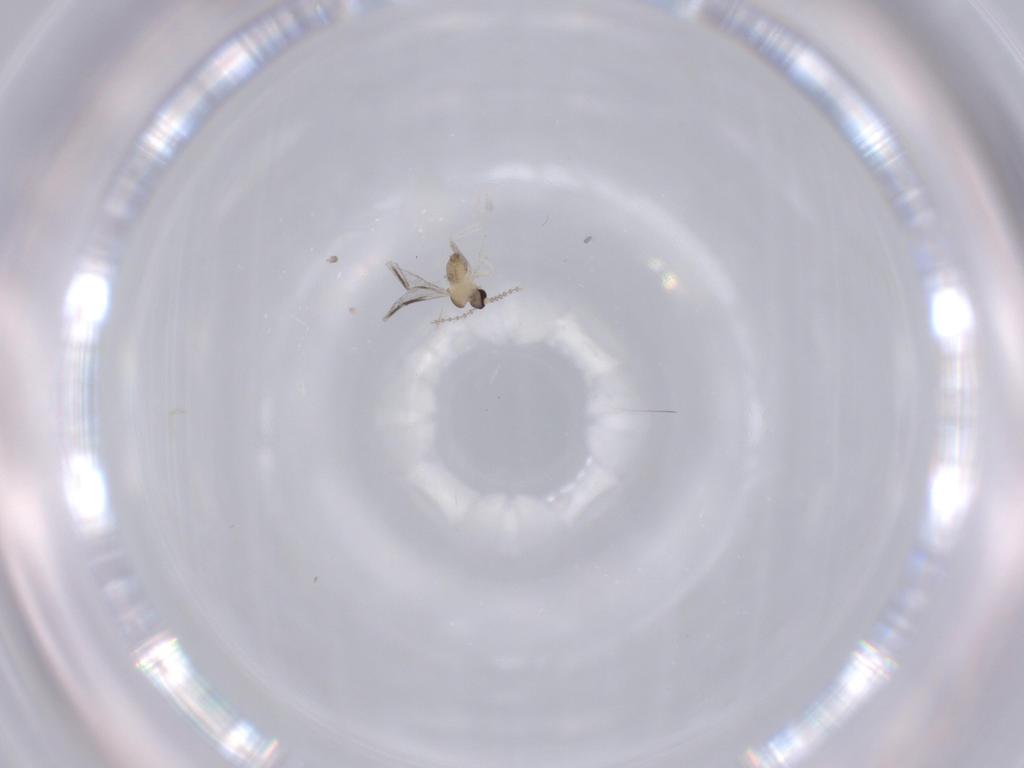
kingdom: Animalia
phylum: Arthropoda
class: Insecta
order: Diptera
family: Cecidomyiidae
